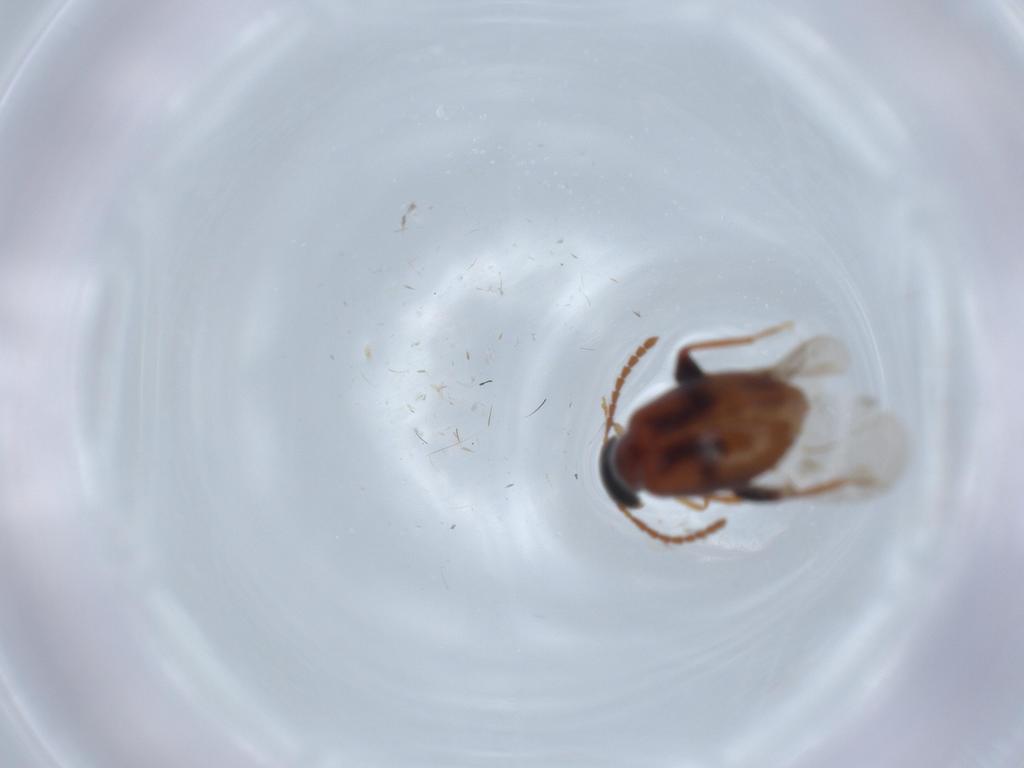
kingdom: Animalia
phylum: Arthropoda
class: Insecta
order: Coleoptera
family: Aderidae
